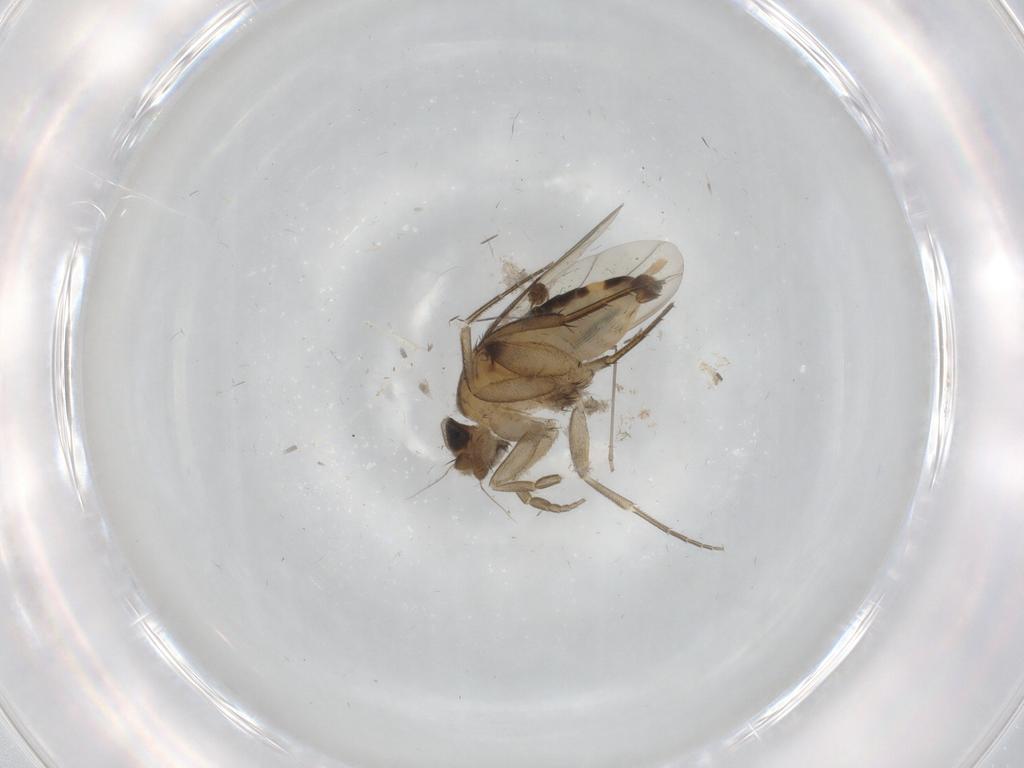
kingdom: Animalia
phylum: Arthropoda
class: Insecta
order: Diptera
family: Phoridae
